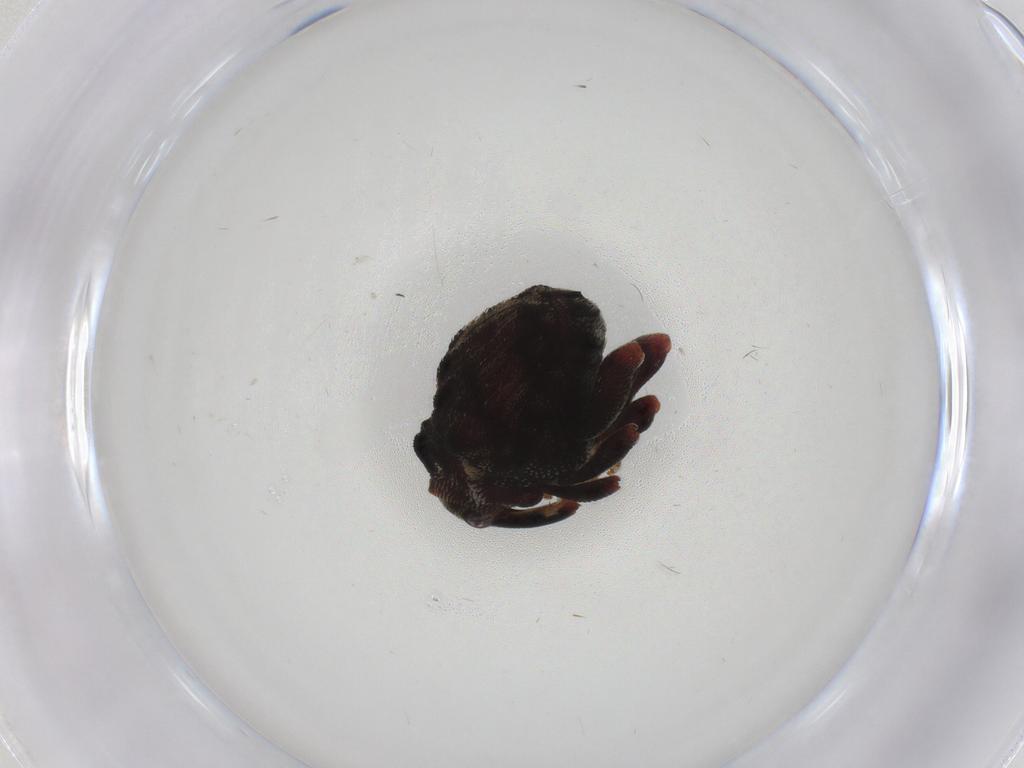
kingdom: Animalia
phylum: Arthropoda
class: Insecta
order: Coleoptera
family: Curculionidae
